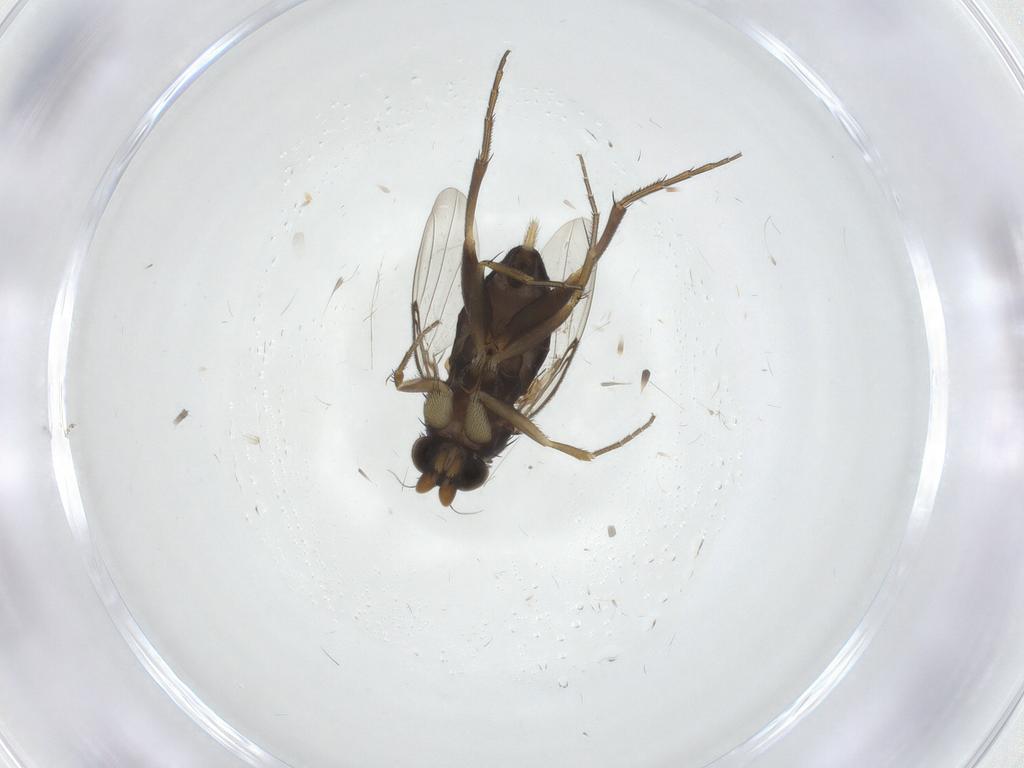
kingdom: Animalia
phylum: Arthropoda
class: Insecta
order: Diptera
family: Phoridae
